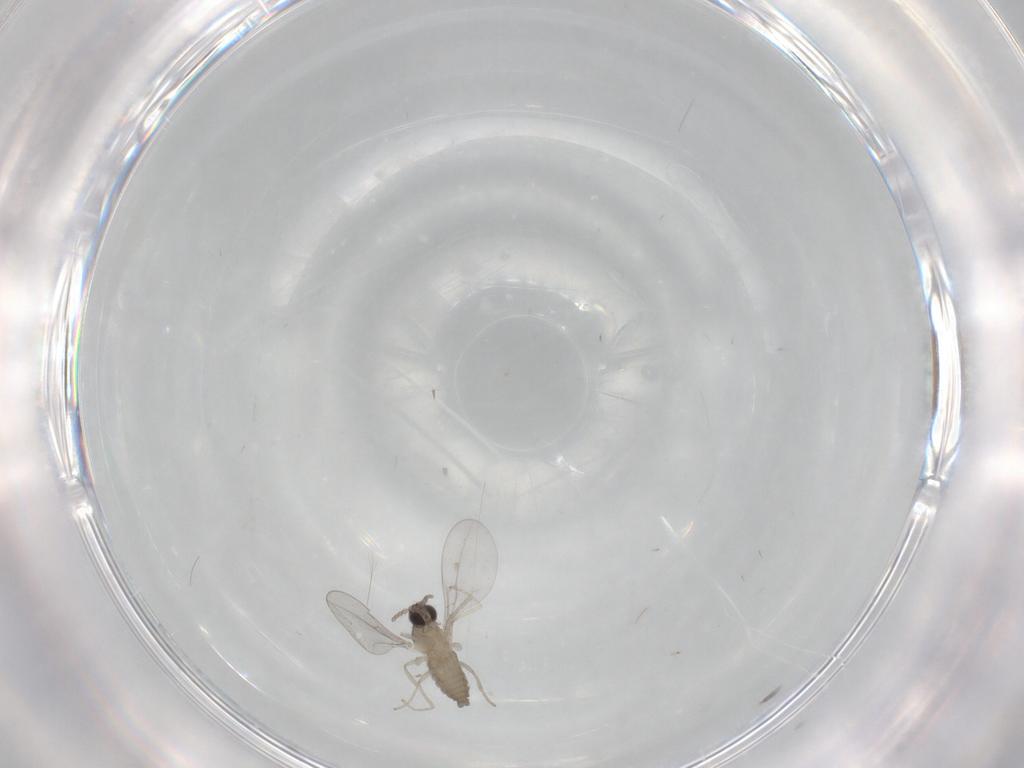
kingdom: Animalia
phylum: Arthropoda
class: Insecta
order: Diptera
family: Cecidomyiidae
